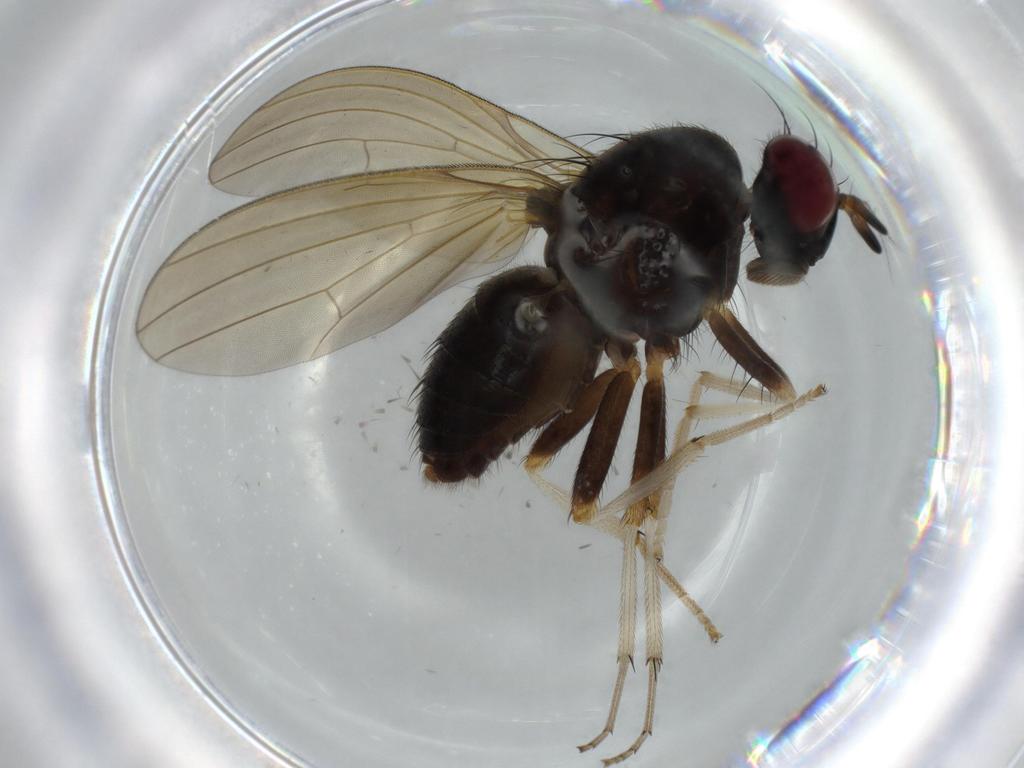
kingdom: Animalia
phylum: Arthropoda
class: Insecta
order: Diptera
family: Dolichopodidae
